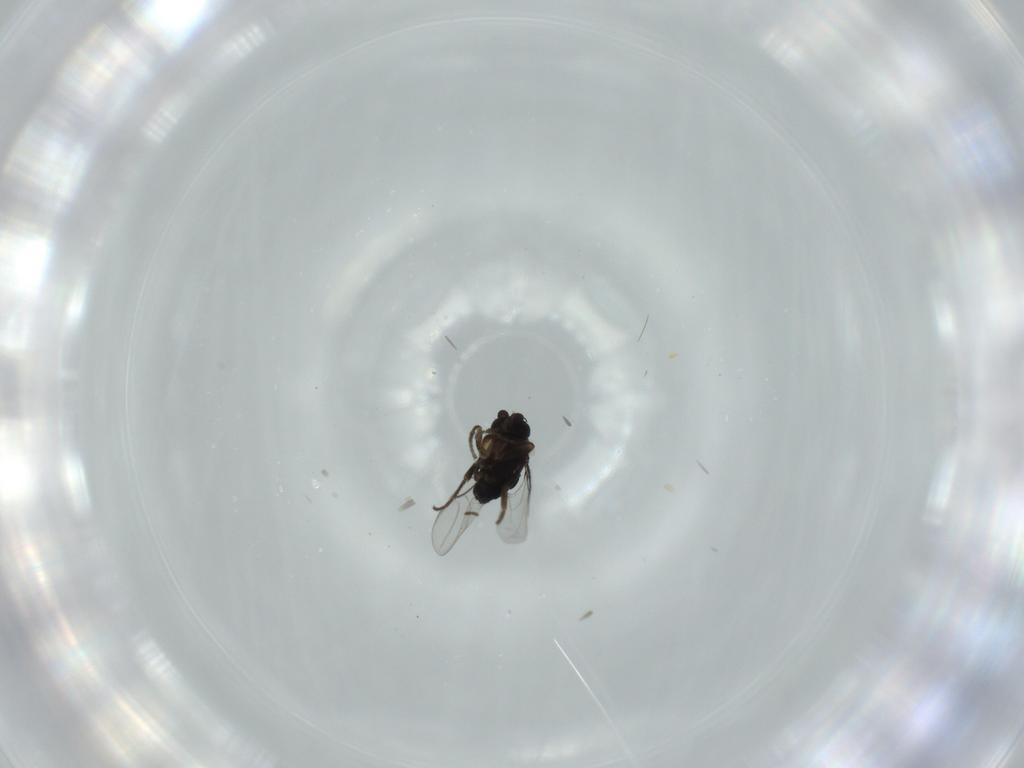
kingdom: Animalia
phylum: Arthropoda
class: Insecta
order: Diptera
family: Phoridae
